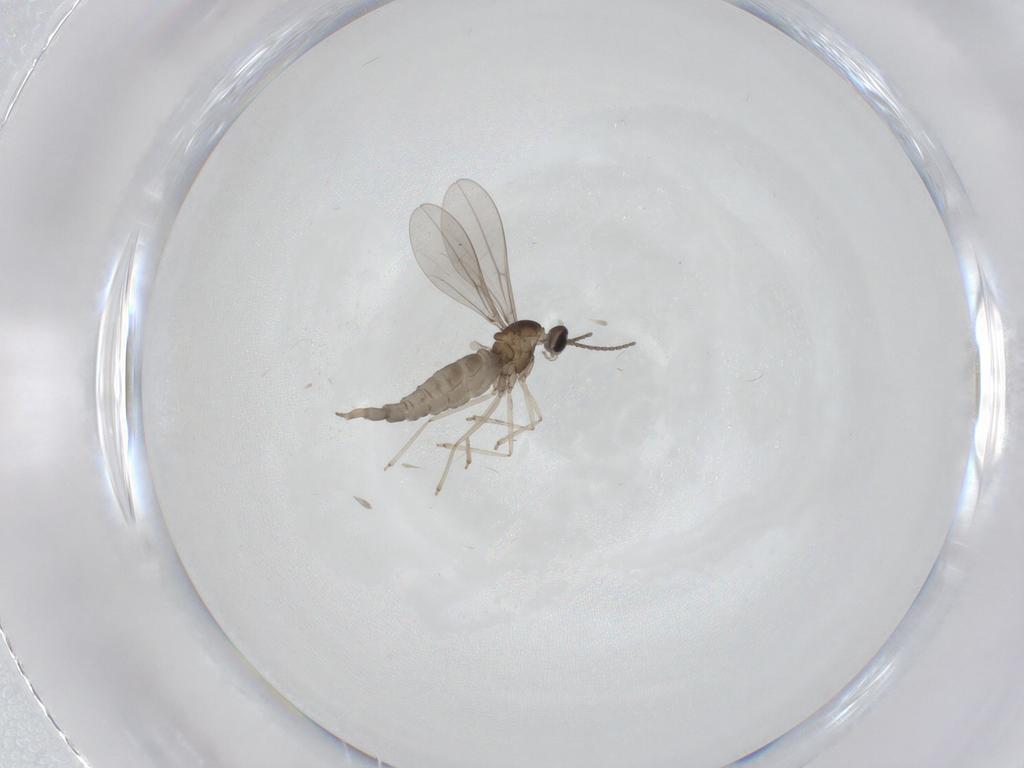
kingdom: Animalia
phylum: Arthropoda
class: Insecta
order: Diptera
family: Cecidomyiidae
